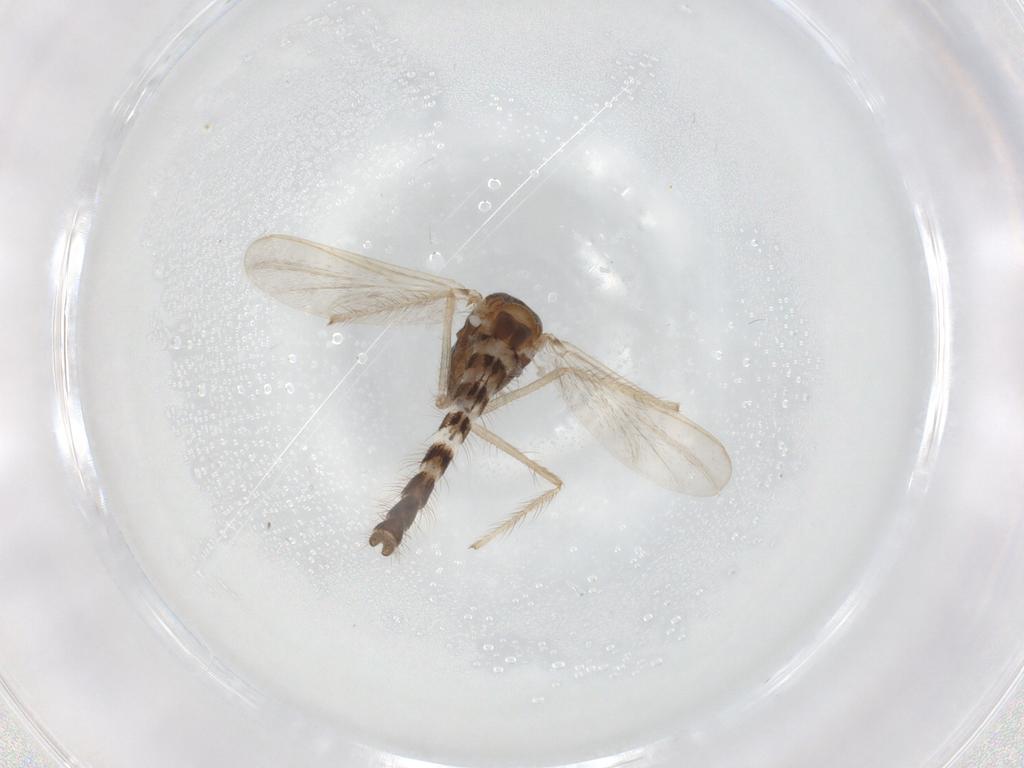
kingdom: Animalia
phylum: Arthropoda
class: Insecta
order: Diptera
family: Chironomidae
